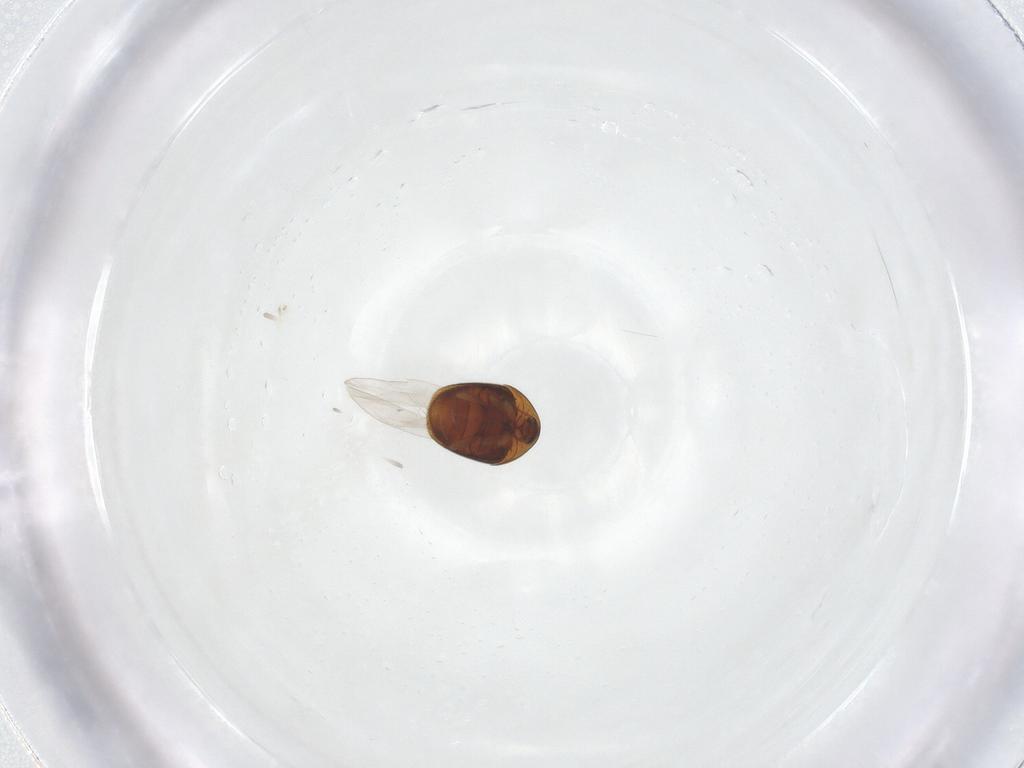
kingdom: Animalia
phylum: Arthropoda
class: Insecta
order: Coleoptera
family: Corylophidae
